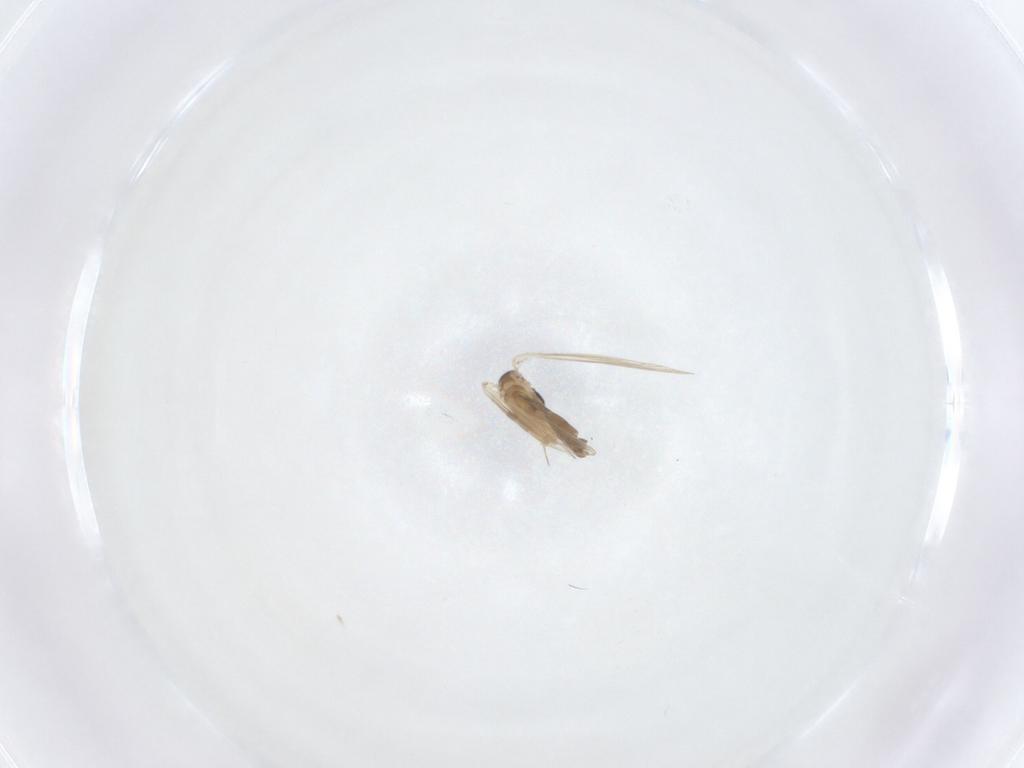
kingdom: Animalia
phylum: Arthropoda
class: Insecta
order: Diptera
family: Psychodidae
